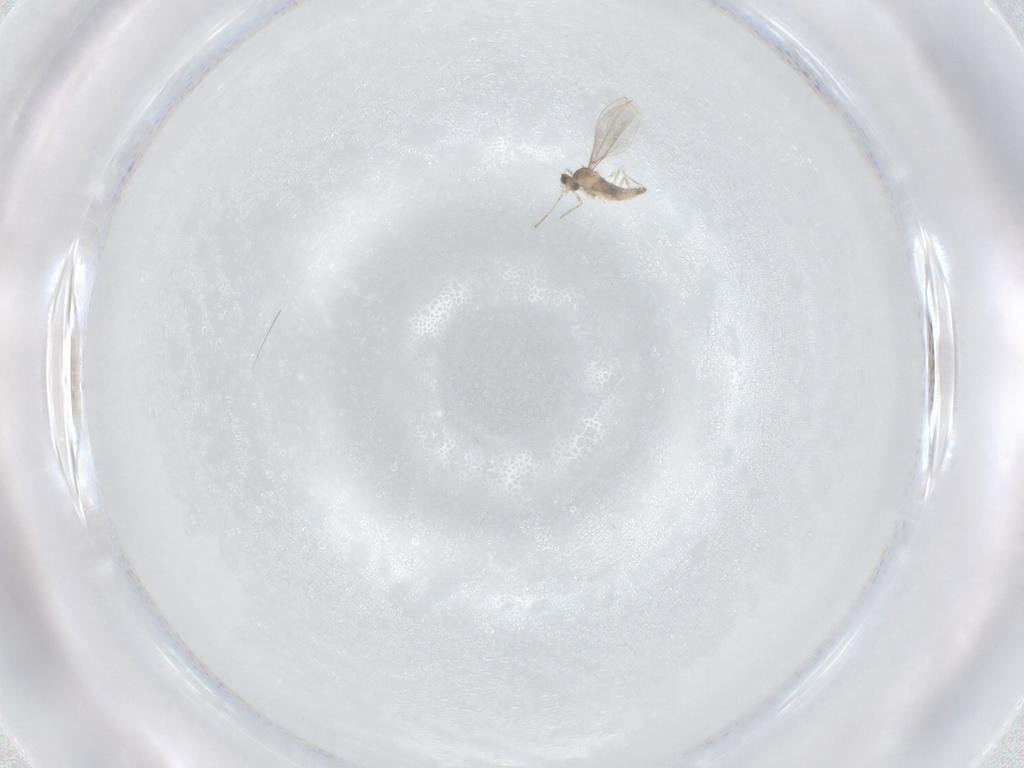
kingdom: Animalia
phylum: Arthropoda
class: Insecta
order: Diptera
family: Cecidomyiidae
